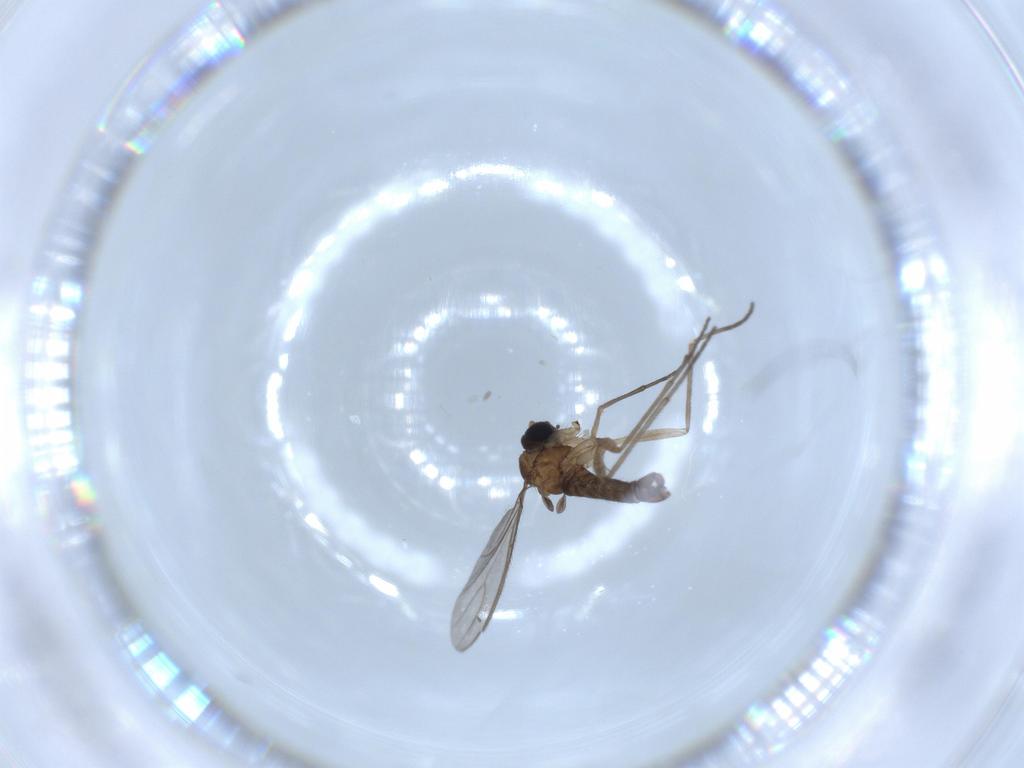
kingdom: Animalia
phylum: Arthropoda
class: Insecta
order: Diptera
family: Sciaridae
